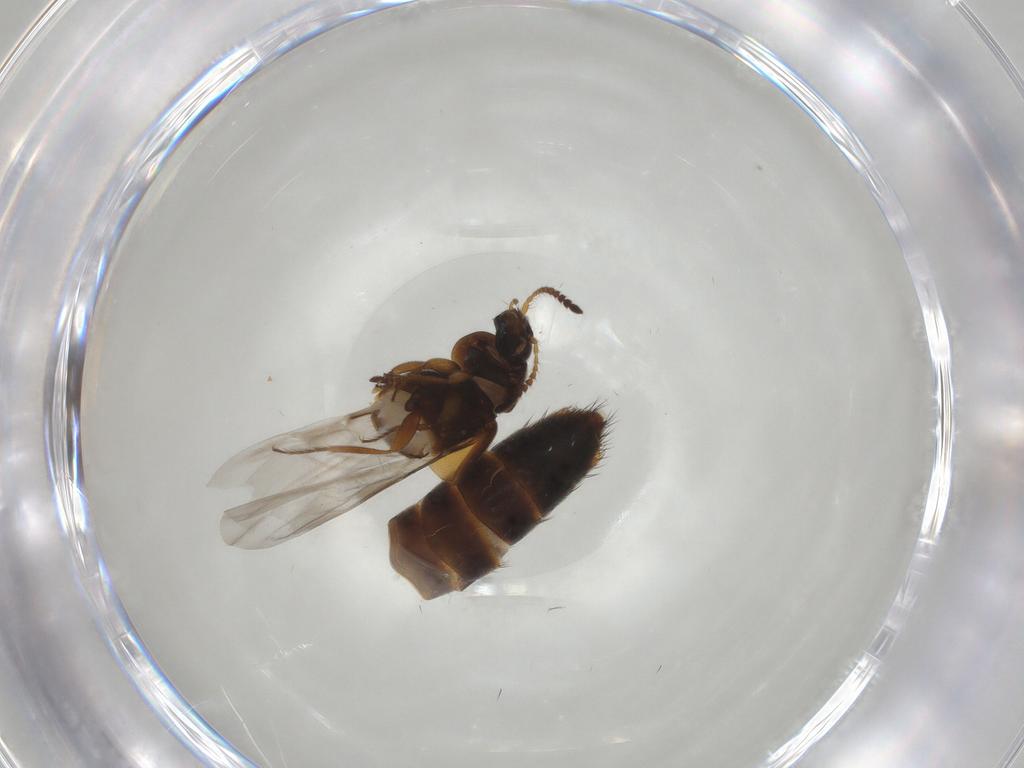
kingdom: Animalia
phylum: Arthropoda
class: Insecta
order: Coleoptera
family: Staphylinidae
